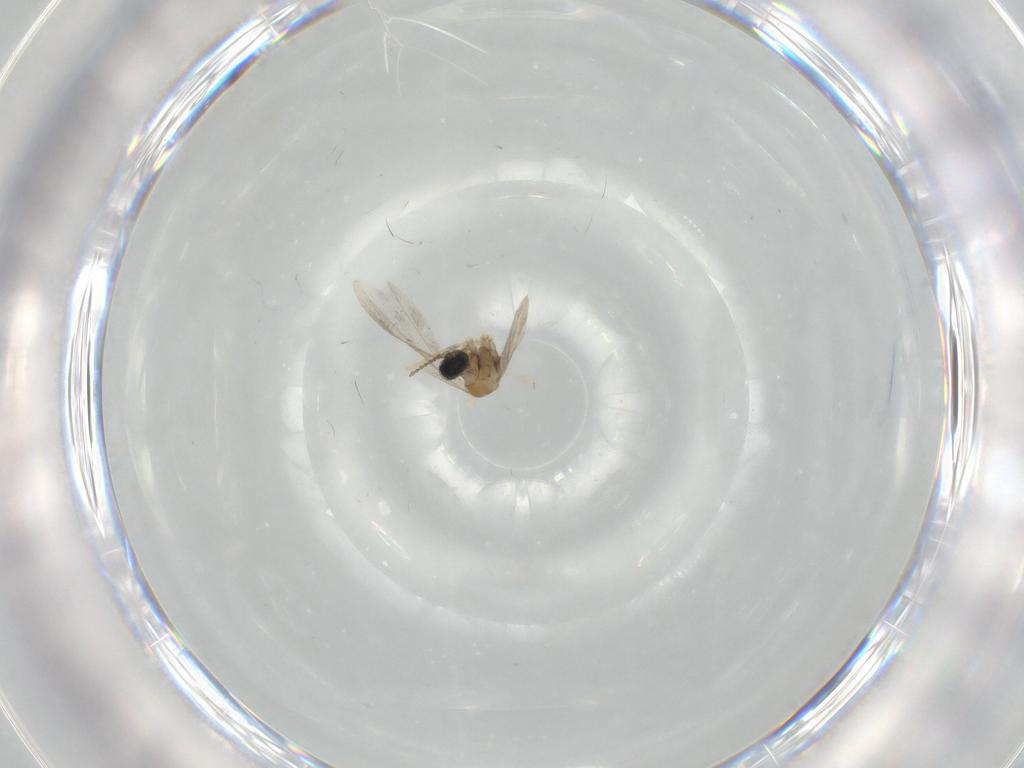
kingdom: Animalia
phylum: Arthropoda
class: Insecta
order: Diptera
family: Cecidomyiidae
